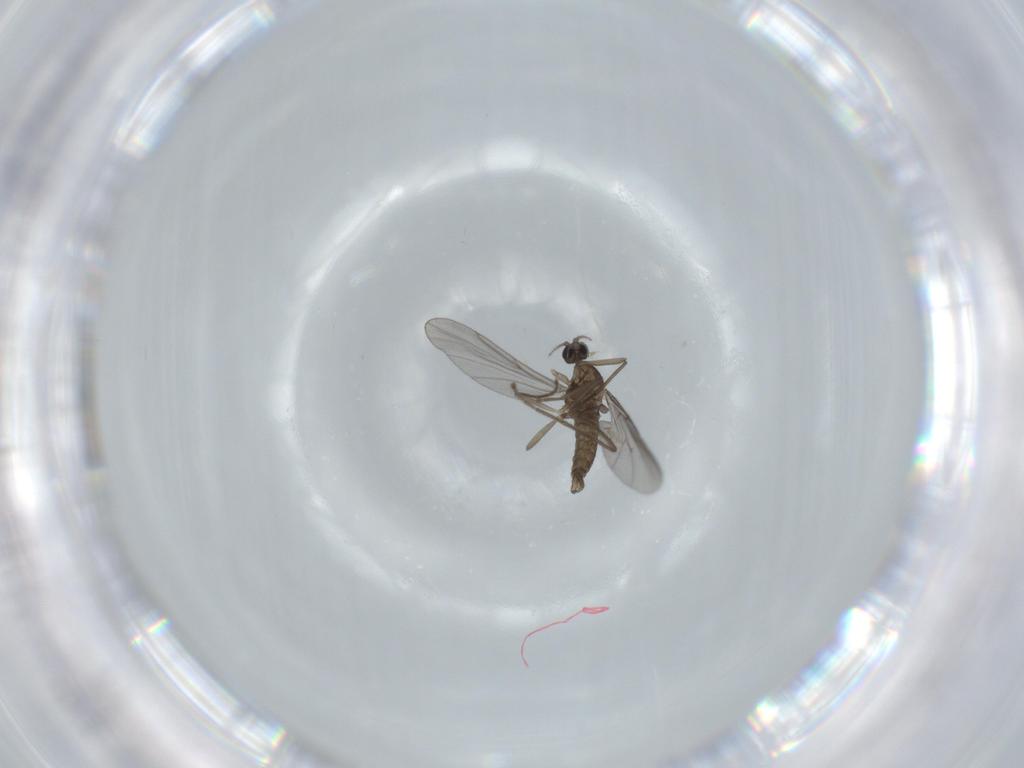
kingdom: Animalia
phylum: Arthropoda
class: Insecta
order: Diptera
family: Cecidomyiidae
